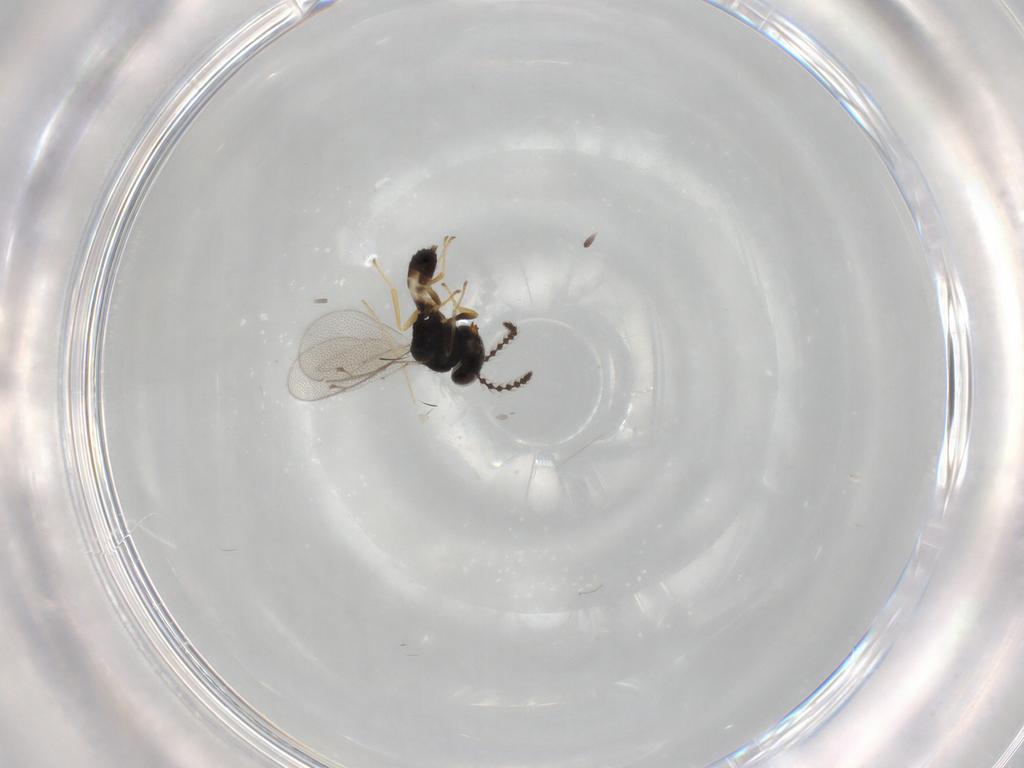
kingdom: Animalia
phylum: Arthropoda
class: Insecta
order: Hymenoptera
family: Pteromalidae
